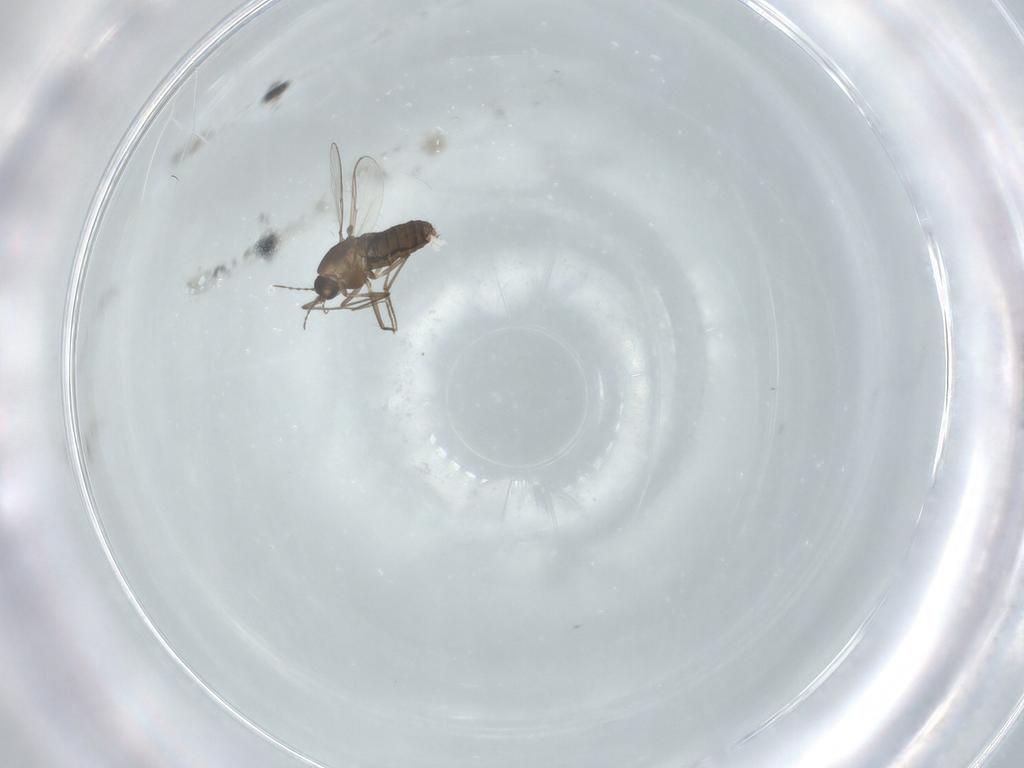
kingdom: Animalia
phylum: Arthropoda
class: Insecta
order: Diptera
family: Chironomidae
